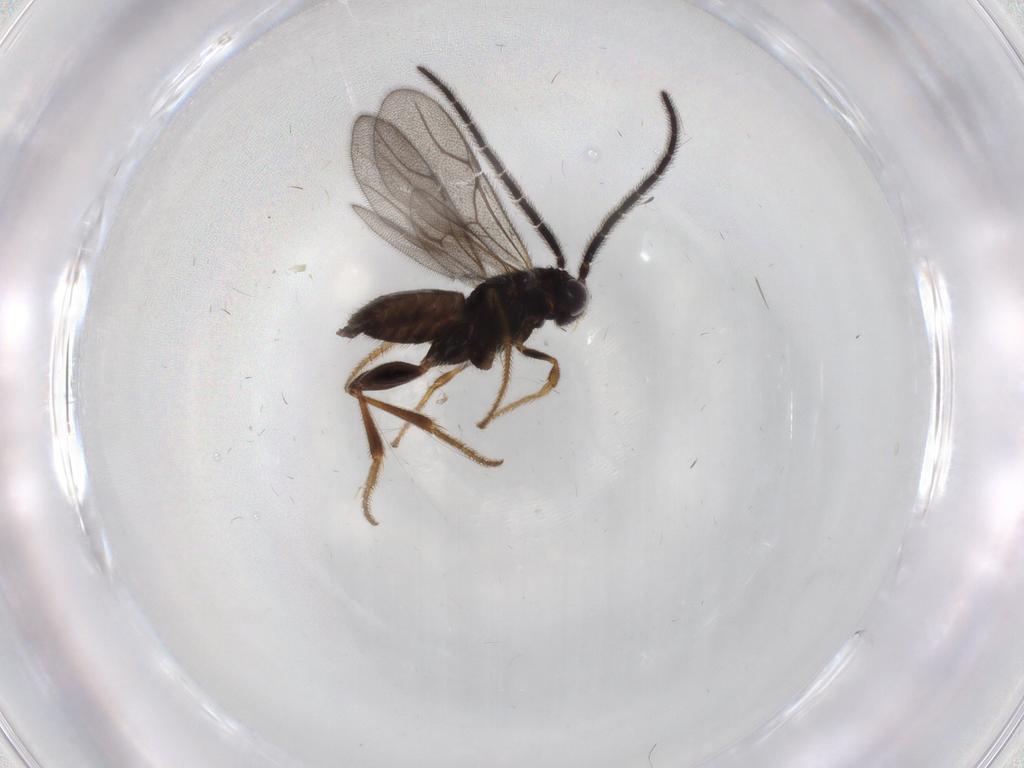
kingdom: Animalia
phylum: Arthropoda
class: Insecta
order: Hymenoptera
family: Dryinidae
